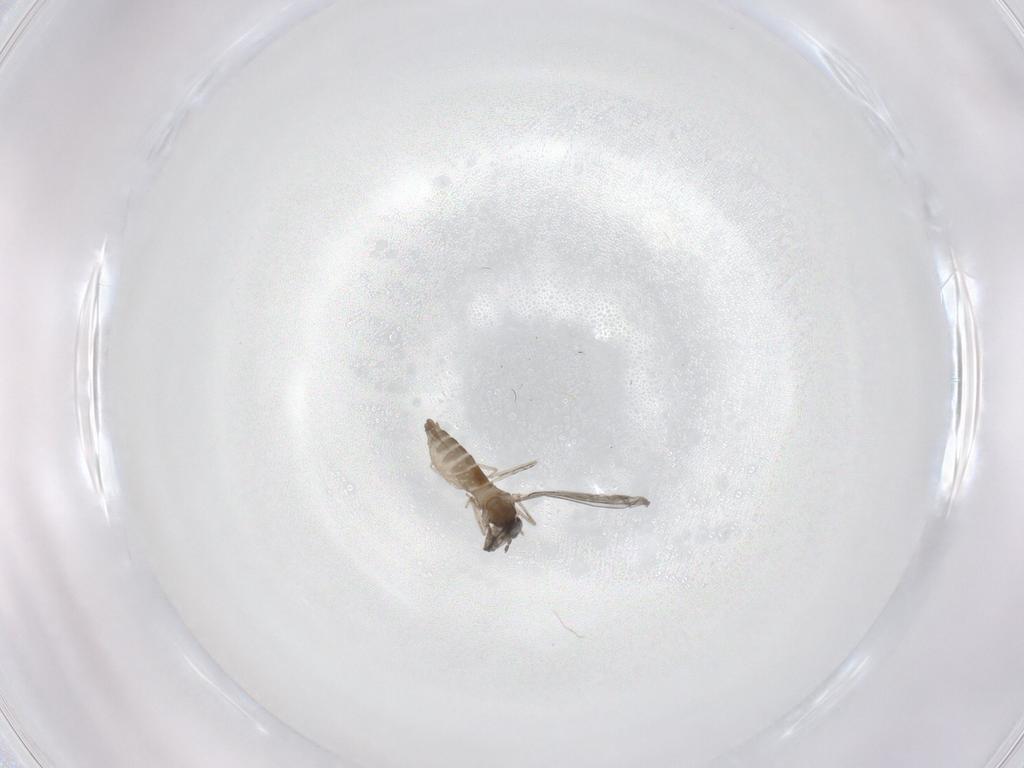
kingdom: Animalia
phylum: Arthropoda
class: Insecta
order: Diptera
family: Cecidomyiidae
